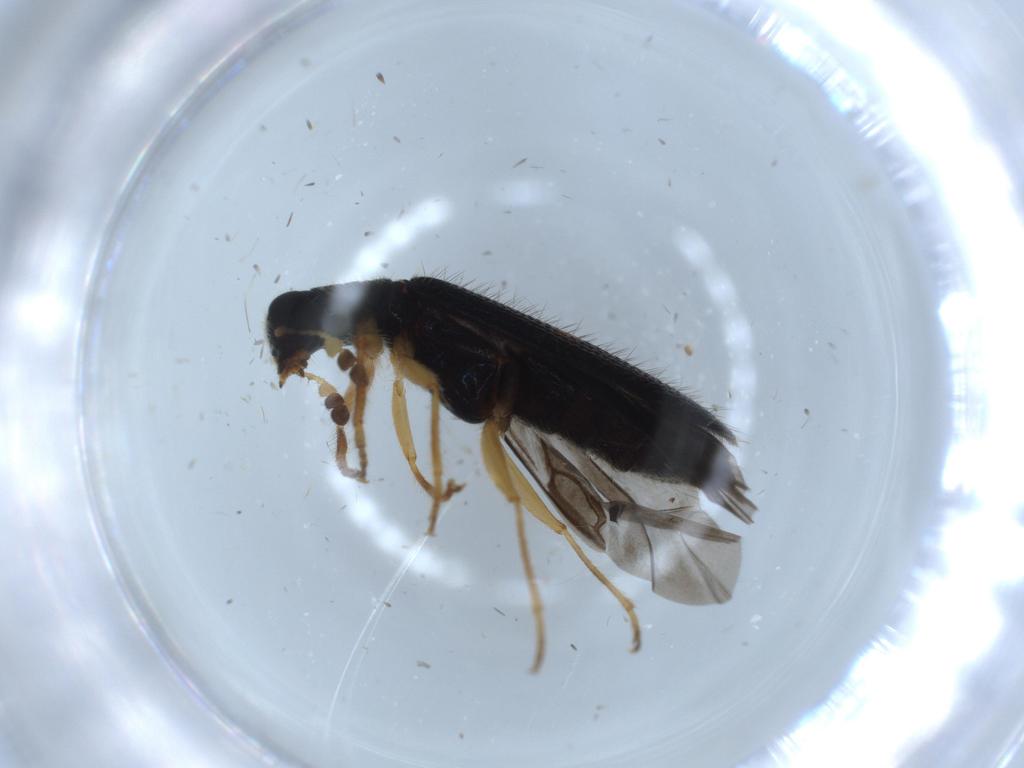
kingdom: Animalia
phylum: Arthropoda
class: Insecta
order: Coleoptera
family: Cleridae
